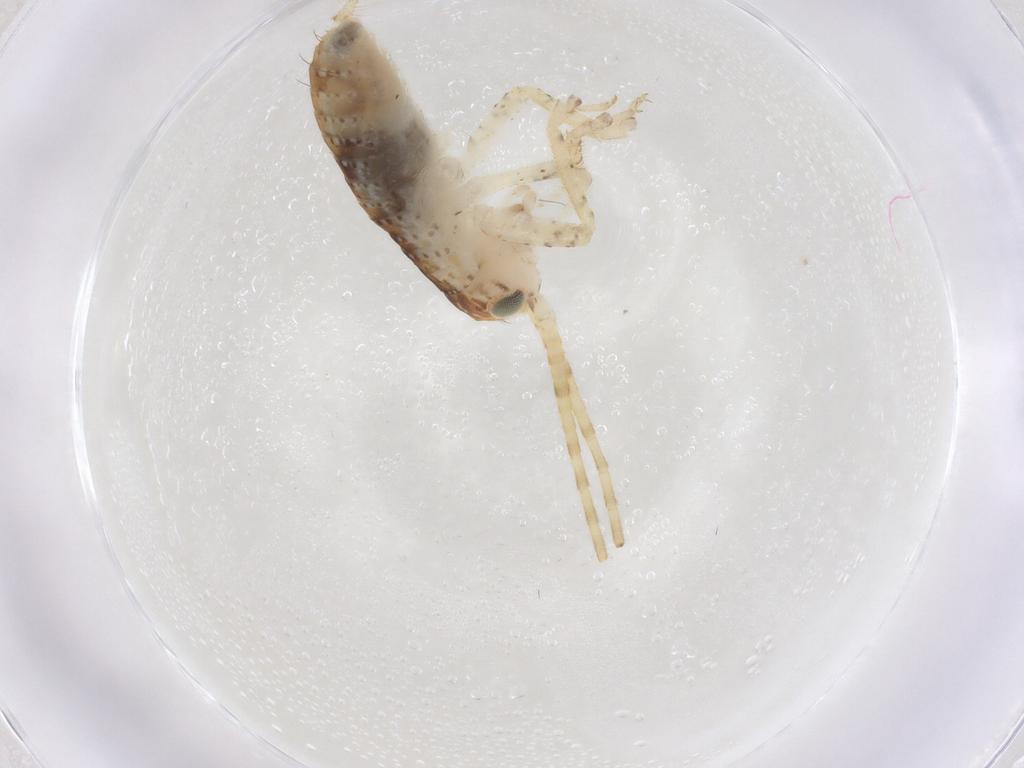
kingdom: Animalia
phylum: Arthropoda
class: Insecta
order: Orthoptera
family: Gryllidae
